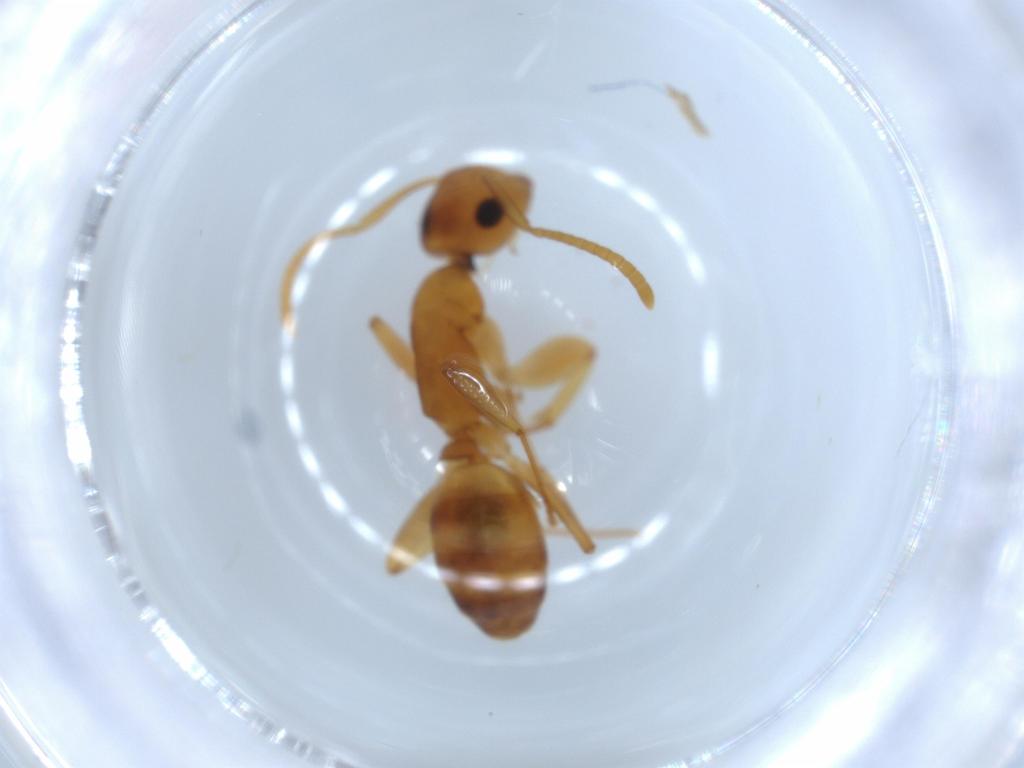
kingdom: Animalia
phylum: Arthropoda
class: Insecta
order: Hymenoptera
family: Formicidae
